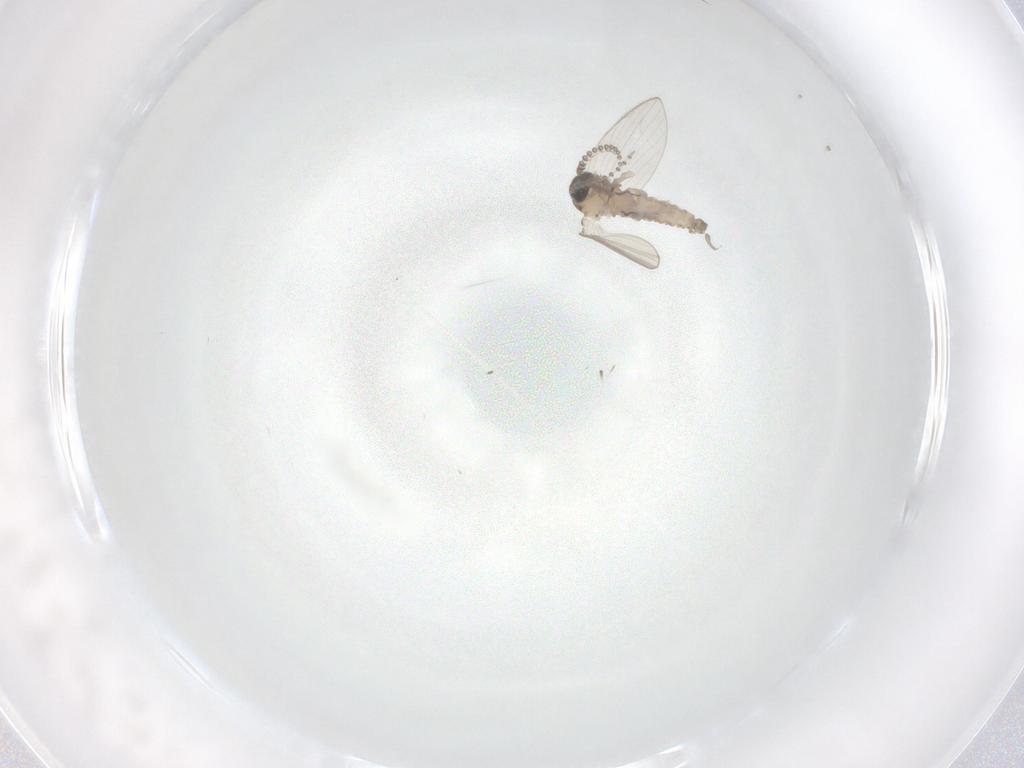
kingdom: Animalia
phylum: Arthropoda
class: Insecta
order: Diptera
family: Psychodidae
